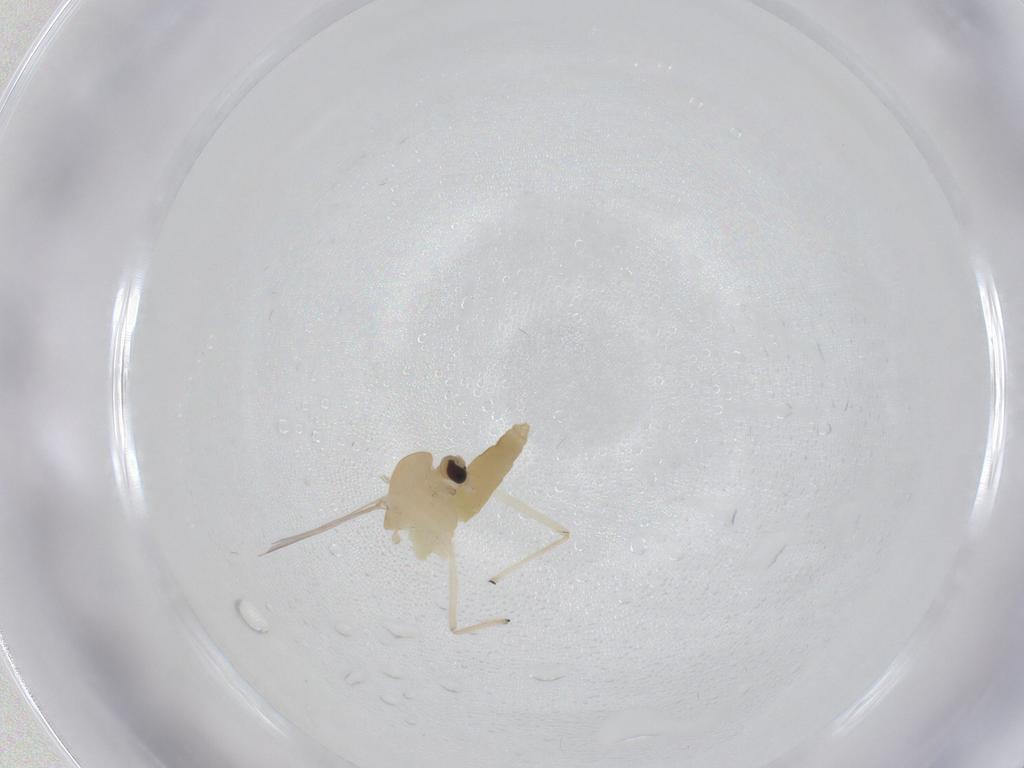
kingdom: Animalia
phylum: Arthropoda
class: Insecta
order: Diptera
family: Chironomidae
